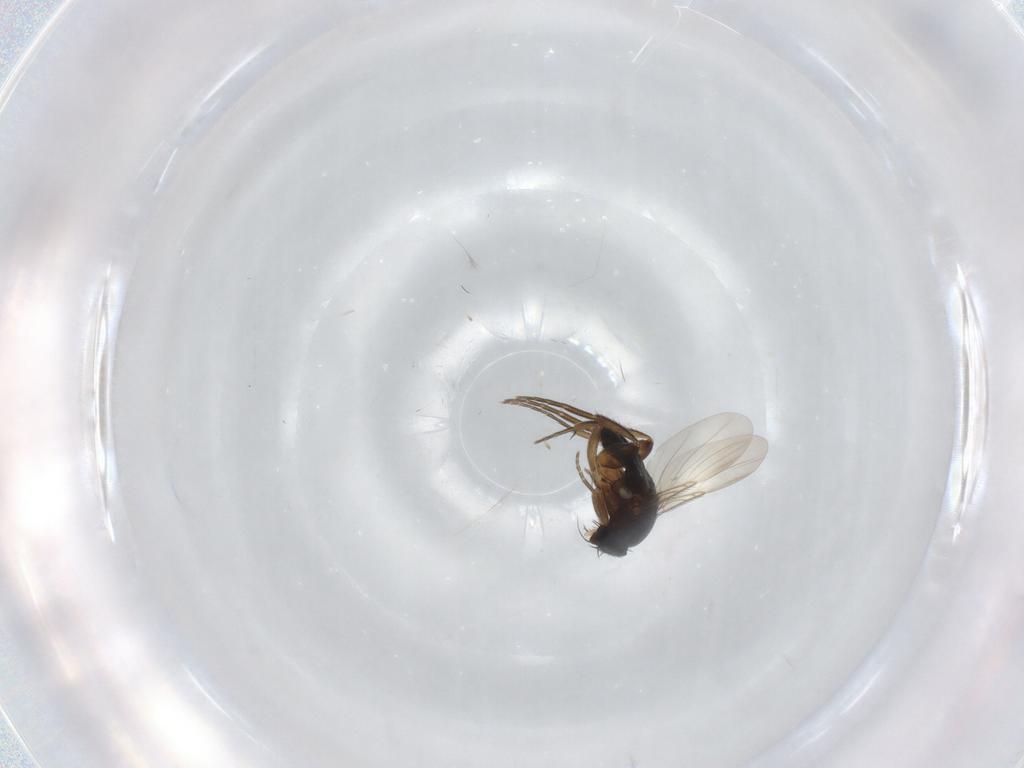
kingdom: Animalia
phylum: Arthropoda
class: Insecta
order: Diptera
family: Phoridae
